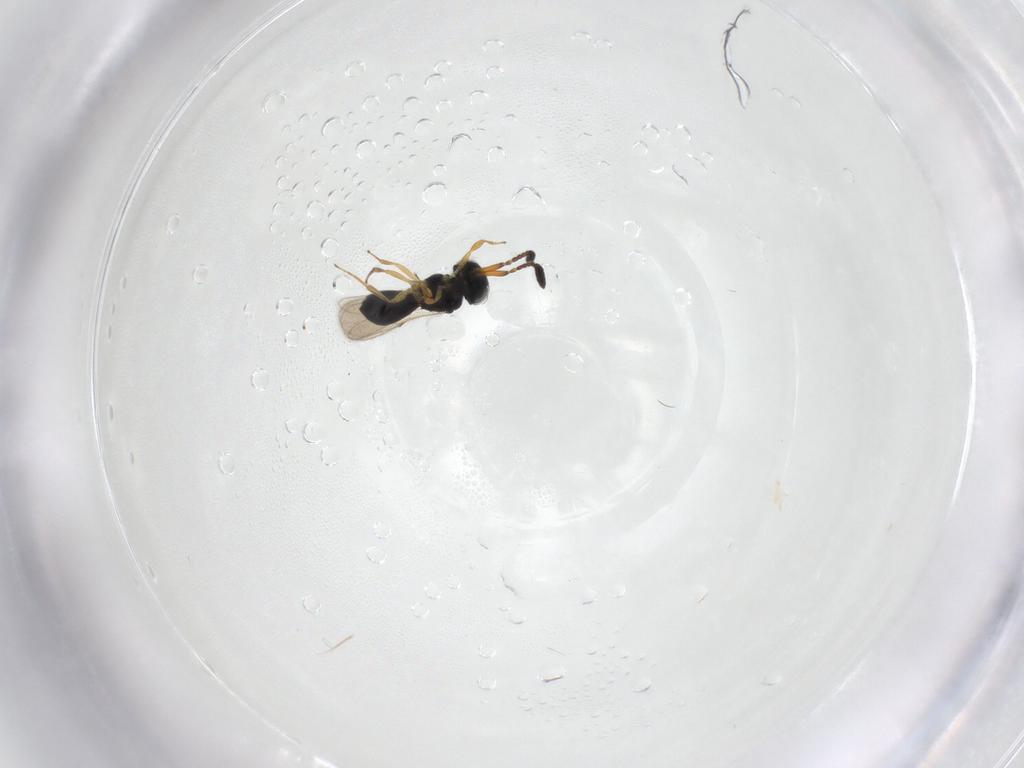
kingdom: Animalia
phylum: Arthropoda
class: Insecta
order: Hymenoptera
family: Scelionidae
